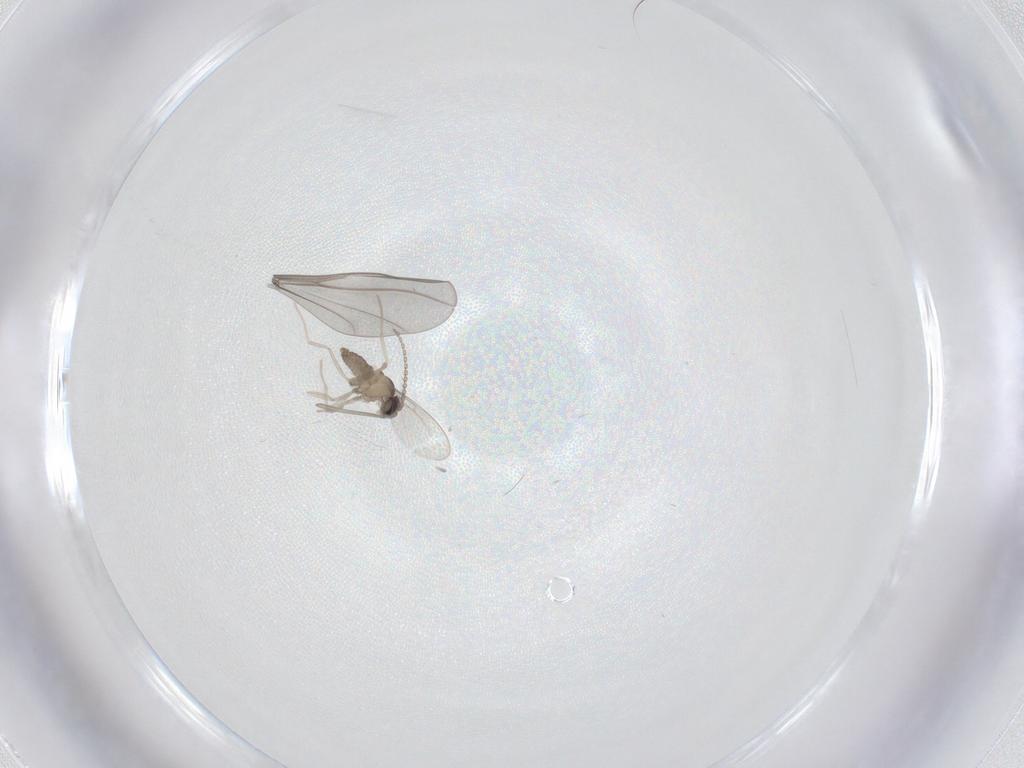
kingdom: Animalia
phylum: Arthropoda
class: Insecta
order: Diptera
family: Cecidomyiidae
